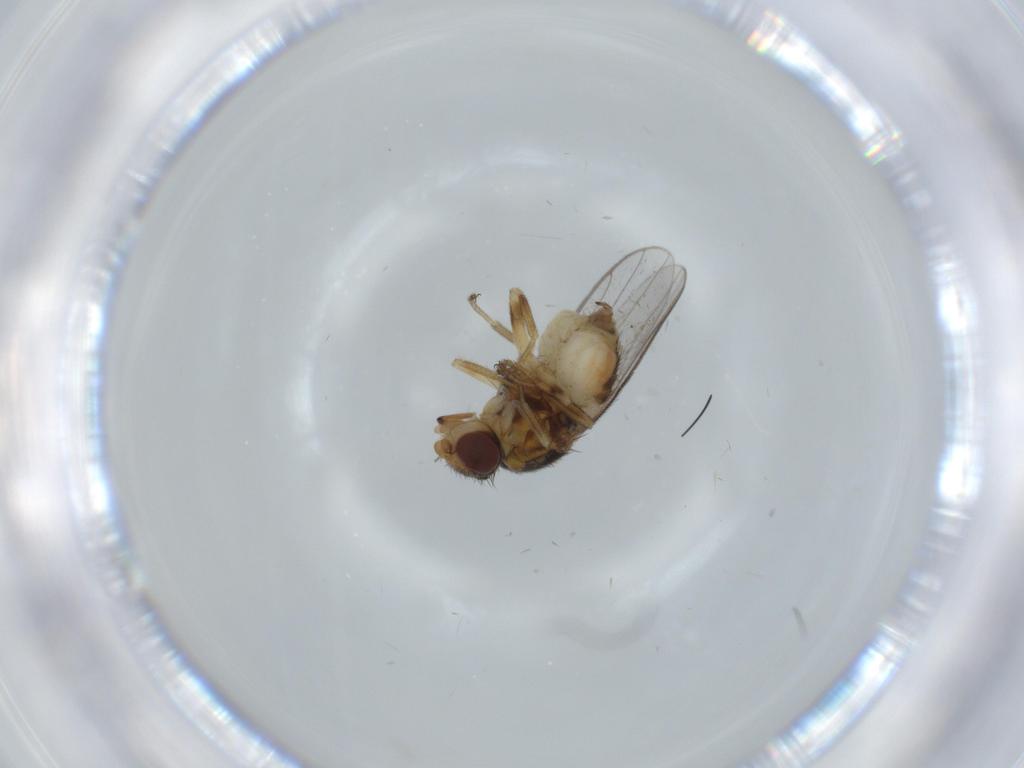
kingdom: Animalia
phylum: Arthropoda
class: Insecta
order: Diptera
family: Chloropidae
